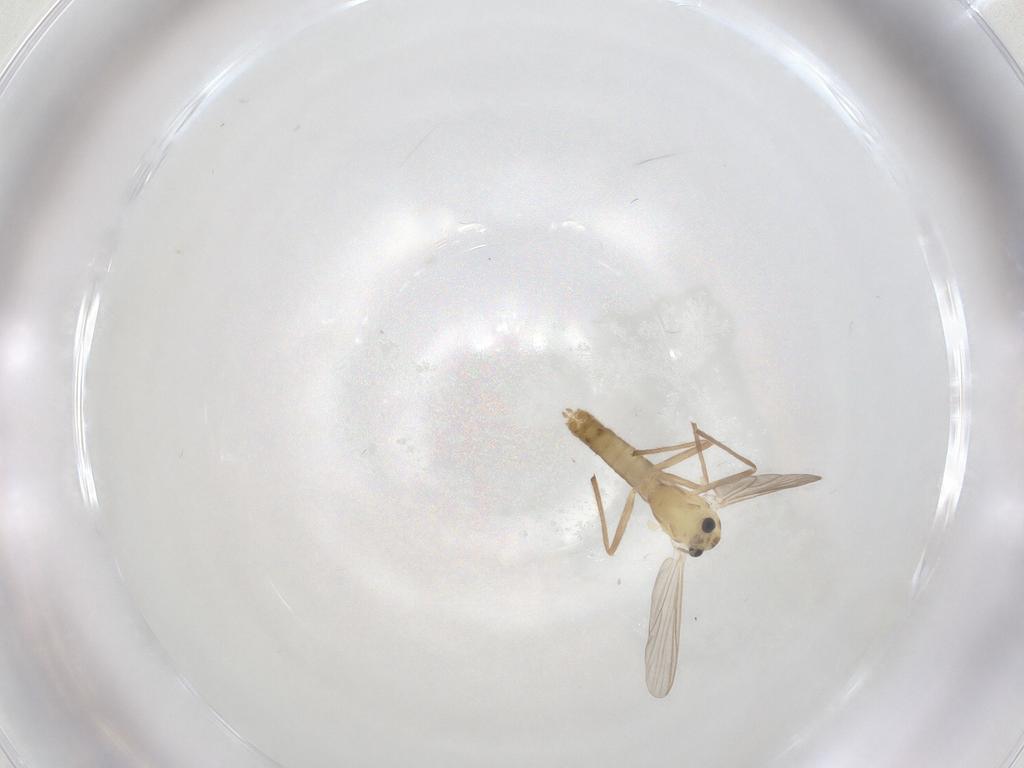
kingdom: Animalia
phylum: Arthropoda
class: Insecta
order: Diptera
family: Chironomidae
